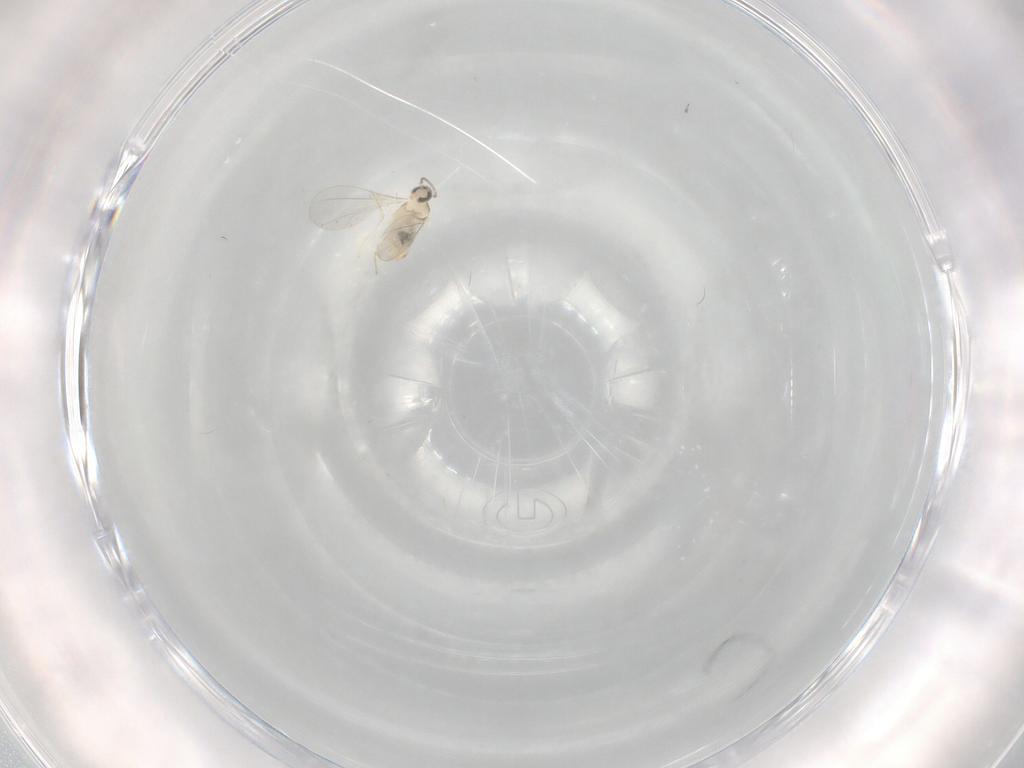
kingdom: Animalia
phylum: Arthropoda
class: Insecta
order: Diptera
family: Cecidomyiidae
